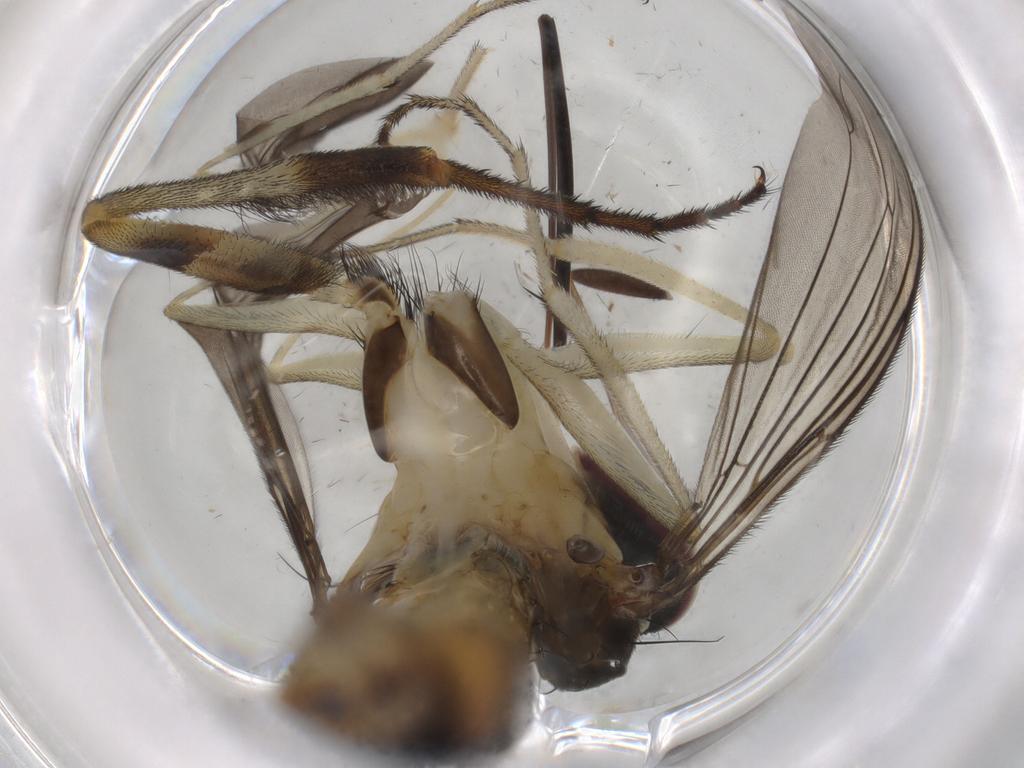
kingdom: Animalia
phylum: Arthropoda
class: Insecta
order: Diptera
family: Phoridae
